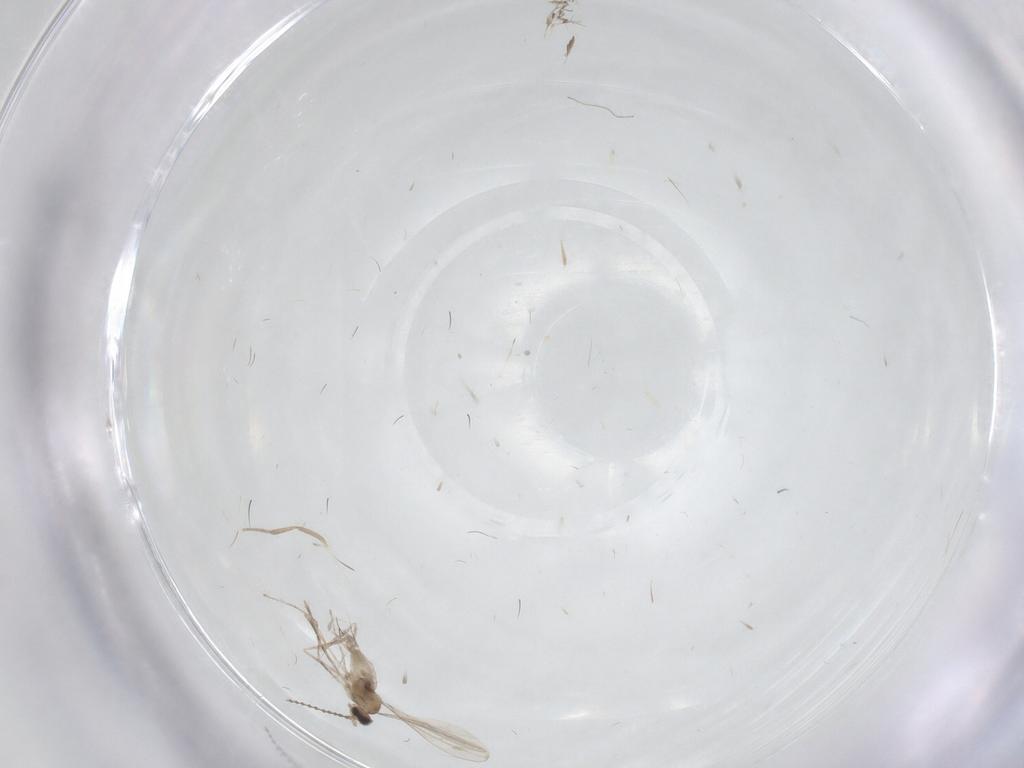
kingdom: Animalia
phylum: Arthropoda
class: Insecta
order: Diptera
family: Cecidomyiidae
